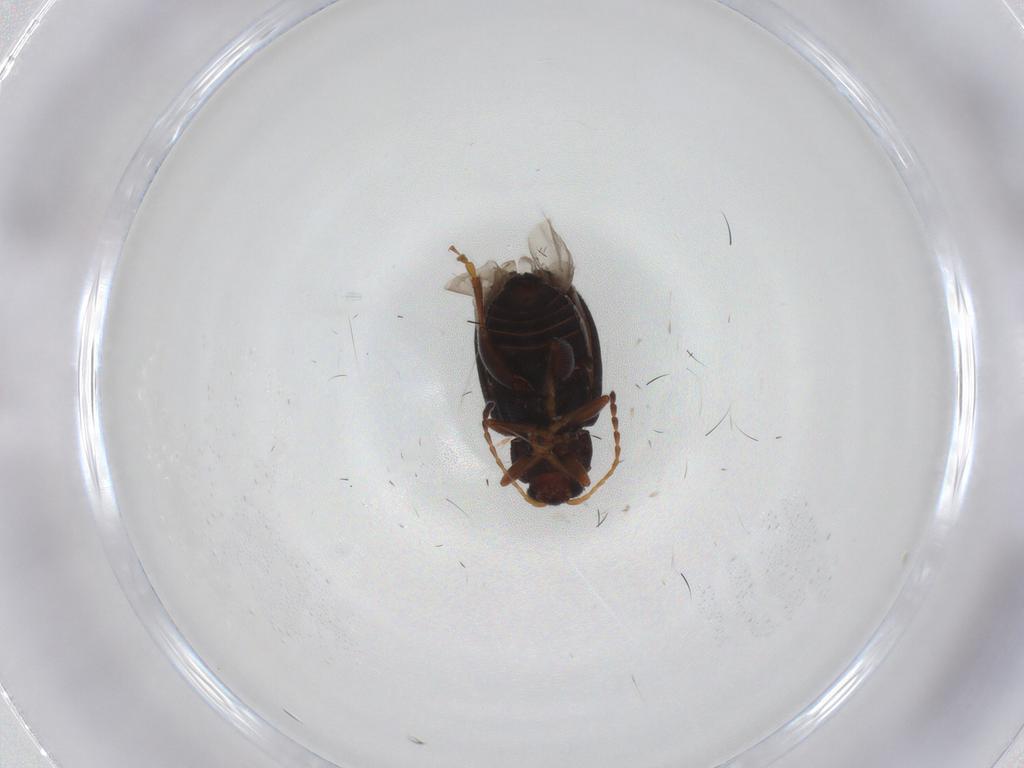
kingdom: Animalia
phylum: Arthropoda
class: Insecta
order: Coleoptera
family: Chrysomelidae
